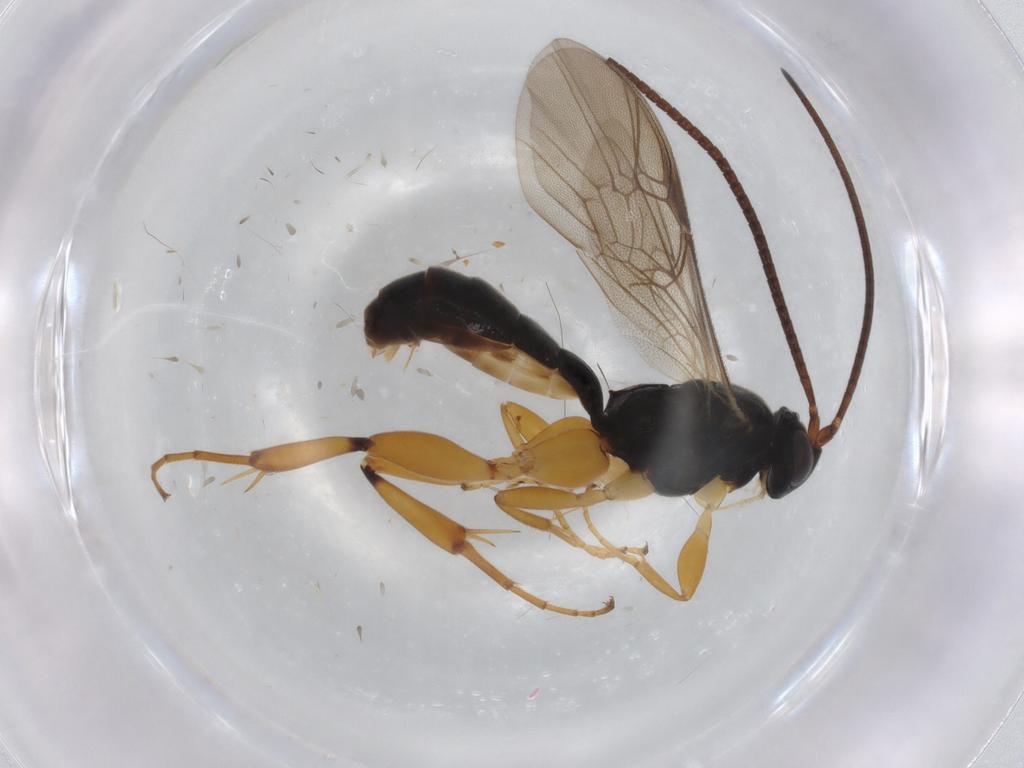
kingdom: Animalia
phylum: Arthropoda
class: Insecta
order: Hymenoptera
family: Ichneumonidae
